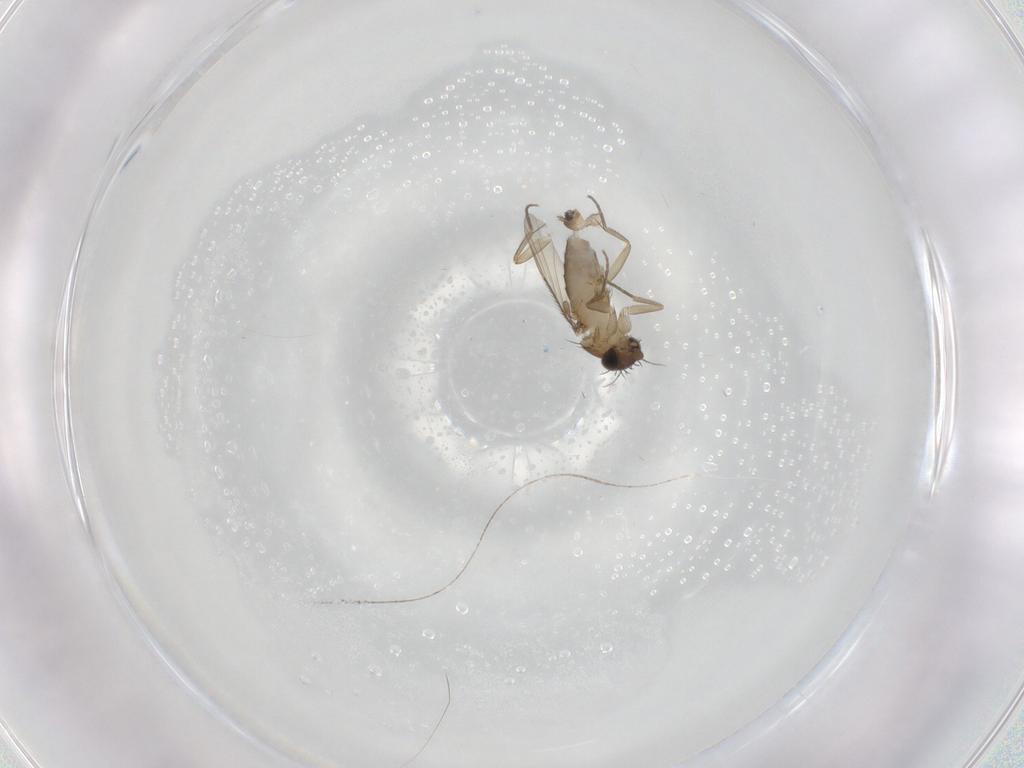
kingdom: Animalia
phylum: Arthropoda
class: Insecta
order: Diptera
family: Phoridae
